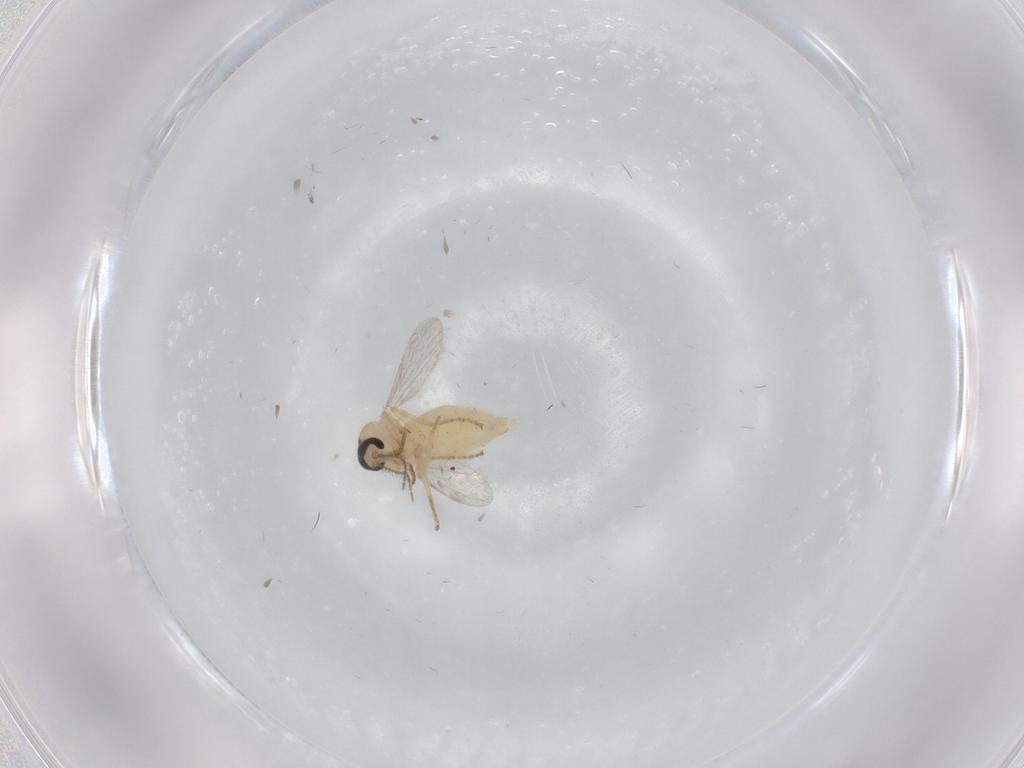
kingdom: Animalia
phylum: Arthropoda
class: Insecta
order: Diptera
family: Ceratopogonidae
